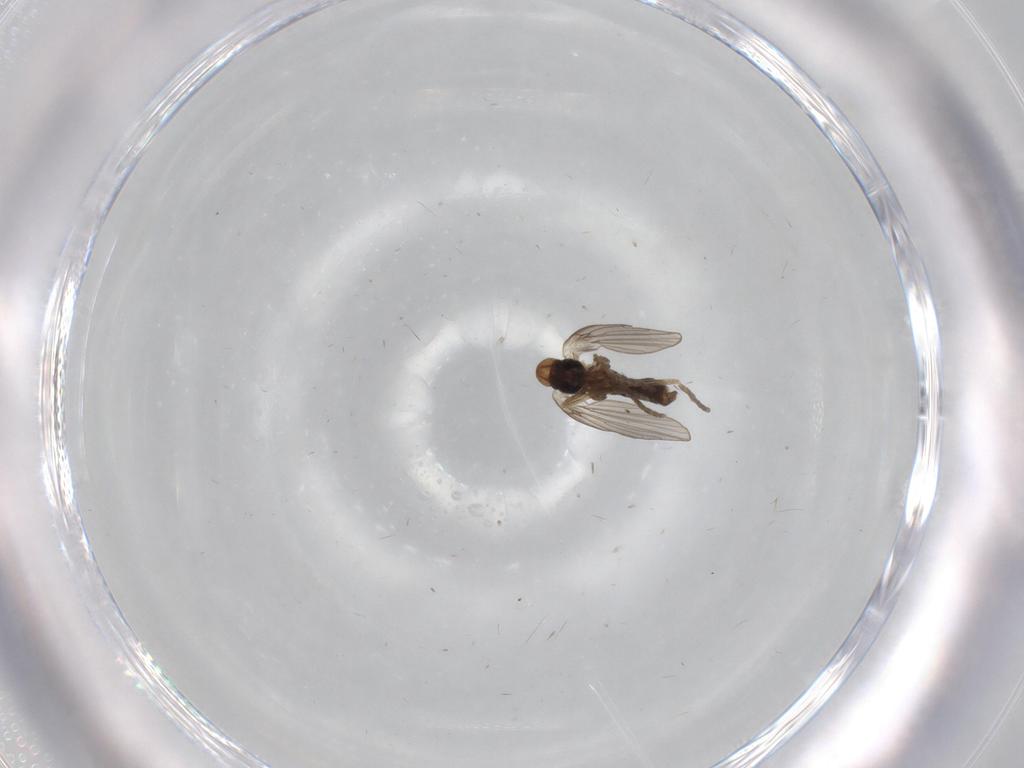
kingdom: Animalia
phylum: Arthropoda
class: Insecta
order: Diptera
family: Psychodidae
